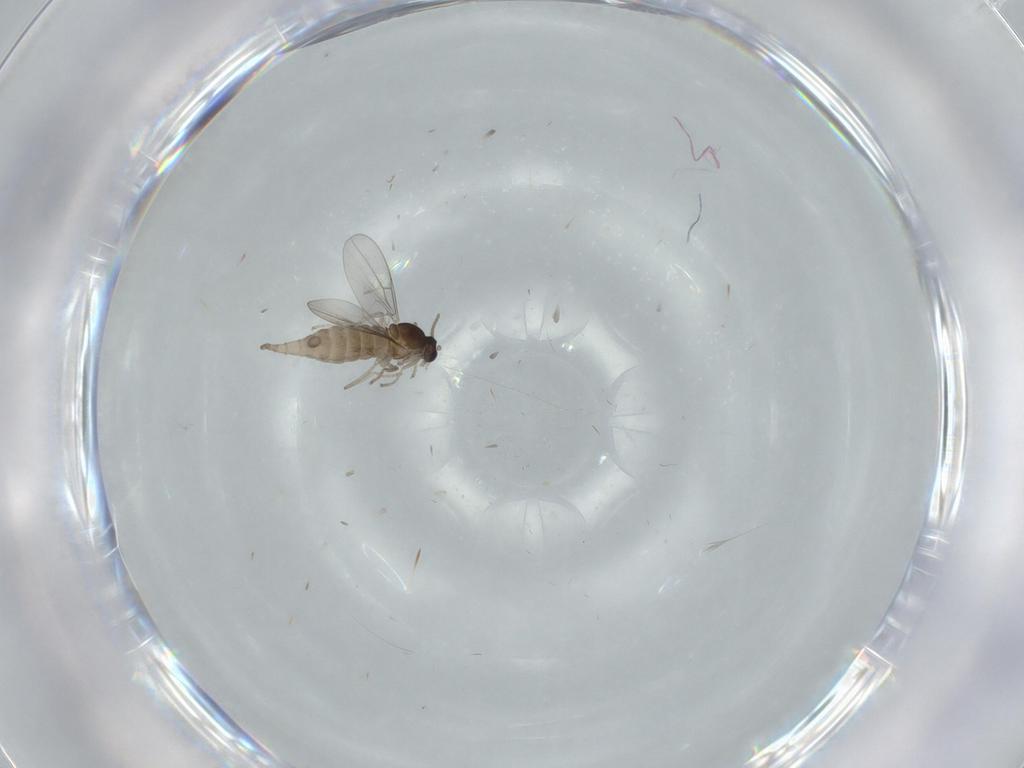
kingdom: Animalia
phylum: Arthropoda
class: Insecta
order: Diptera
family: Cecidomyiidae
